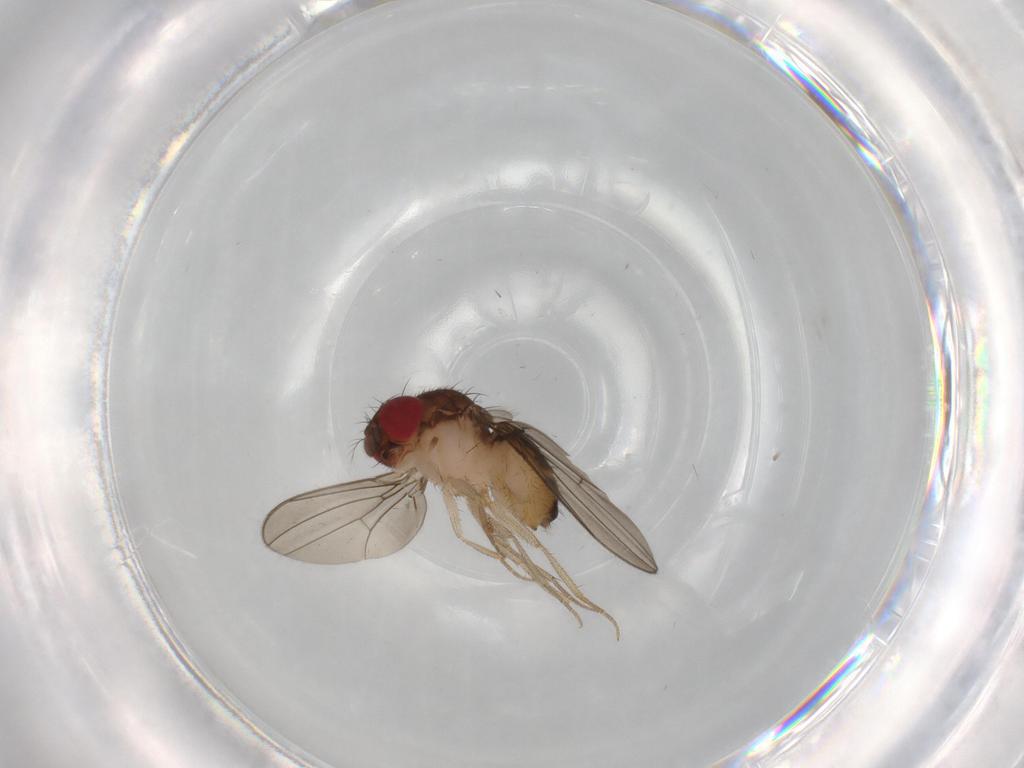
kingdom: Animalia
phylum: Arthropoda
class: Insecta
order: Diptera
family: Drosophilidae
